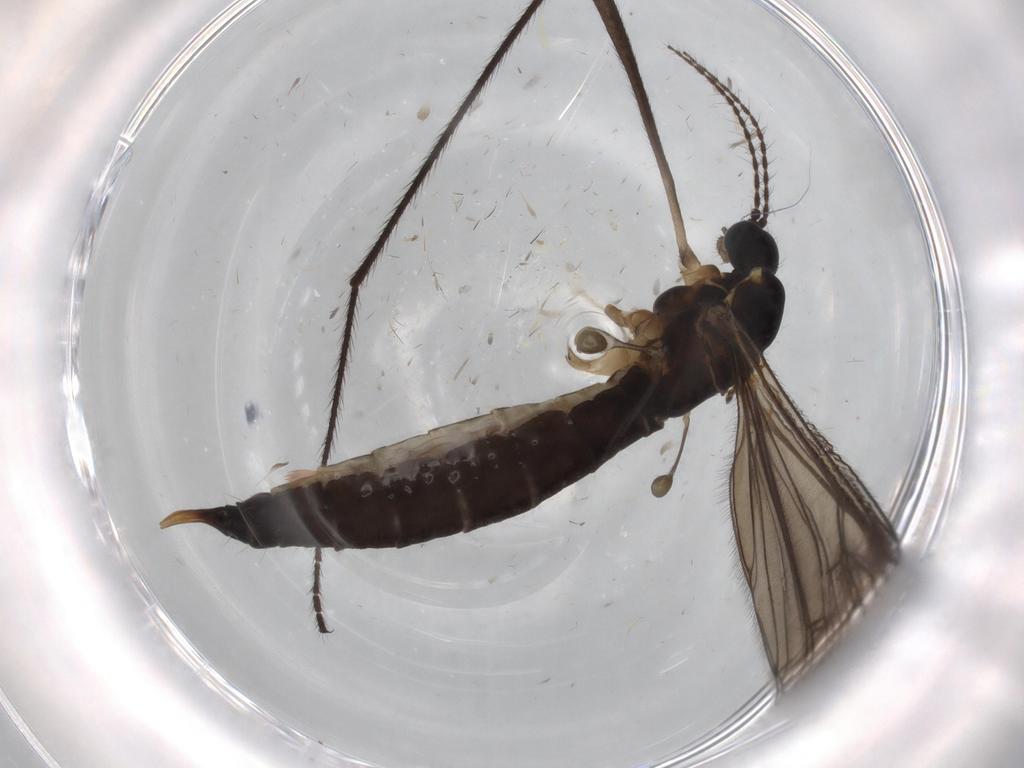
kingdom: Animalia
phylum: Arthropoda
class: Insecta
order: Diptera
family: Limoniidae
